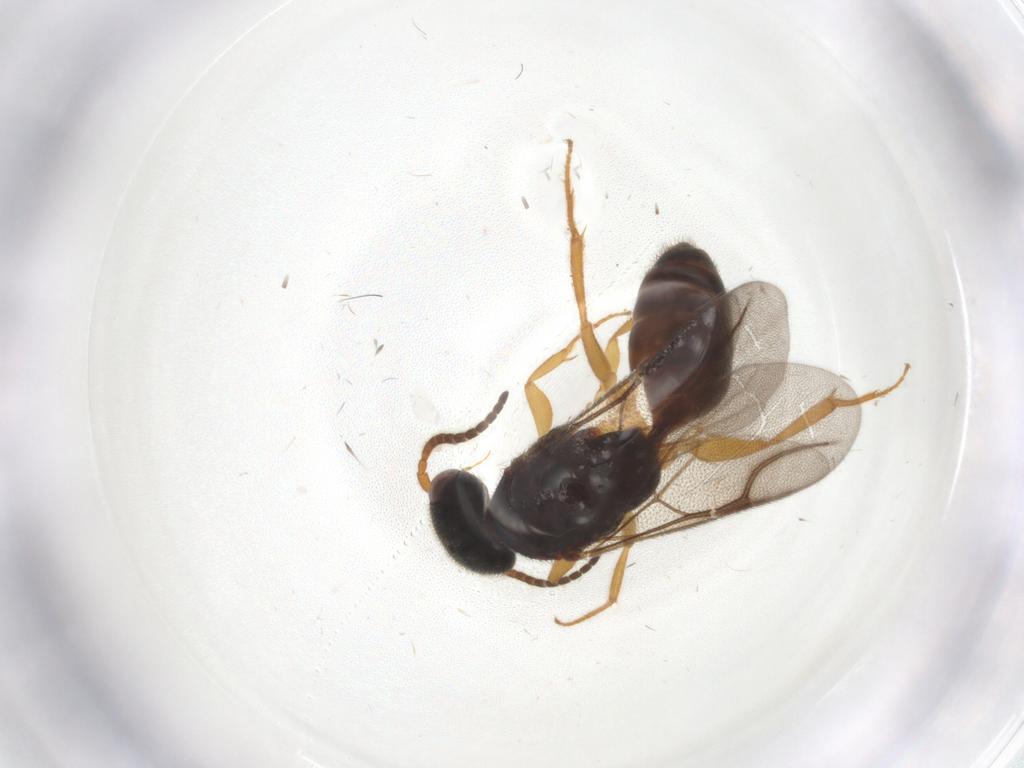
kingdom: Animalia
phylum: Arthropoda
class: Insecta
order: Hymenoptera
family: Bethylidae
